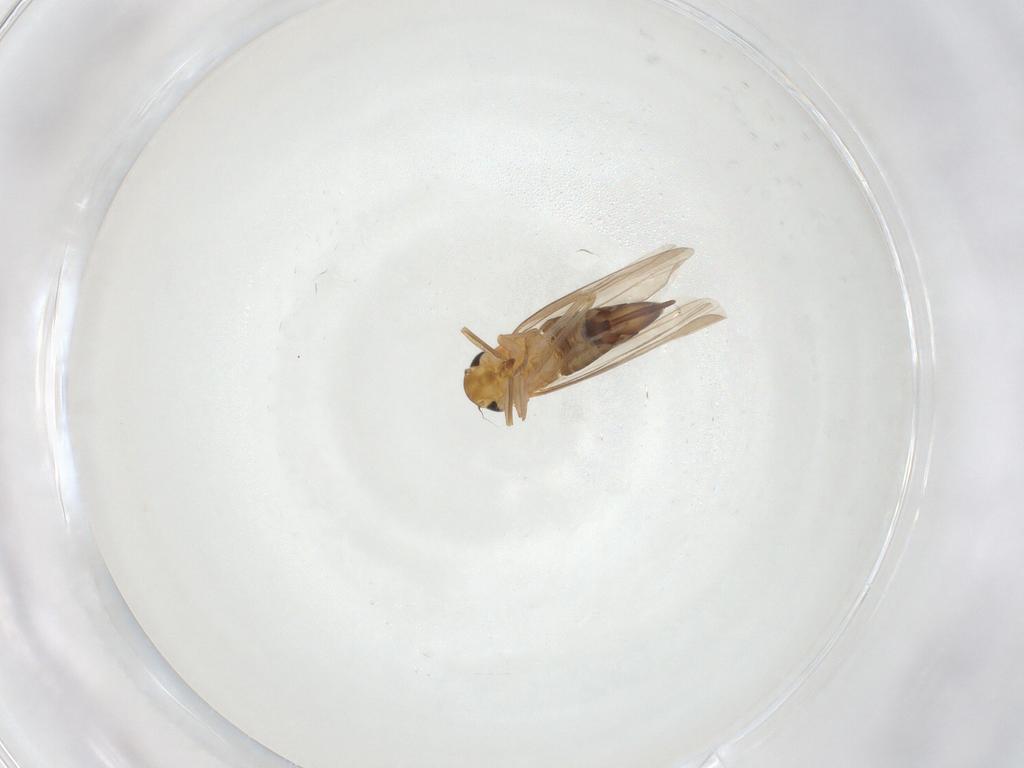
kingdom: Animalia
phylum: Arthropoda
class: Insecta
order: Hemiptera
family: Cicadellidae
